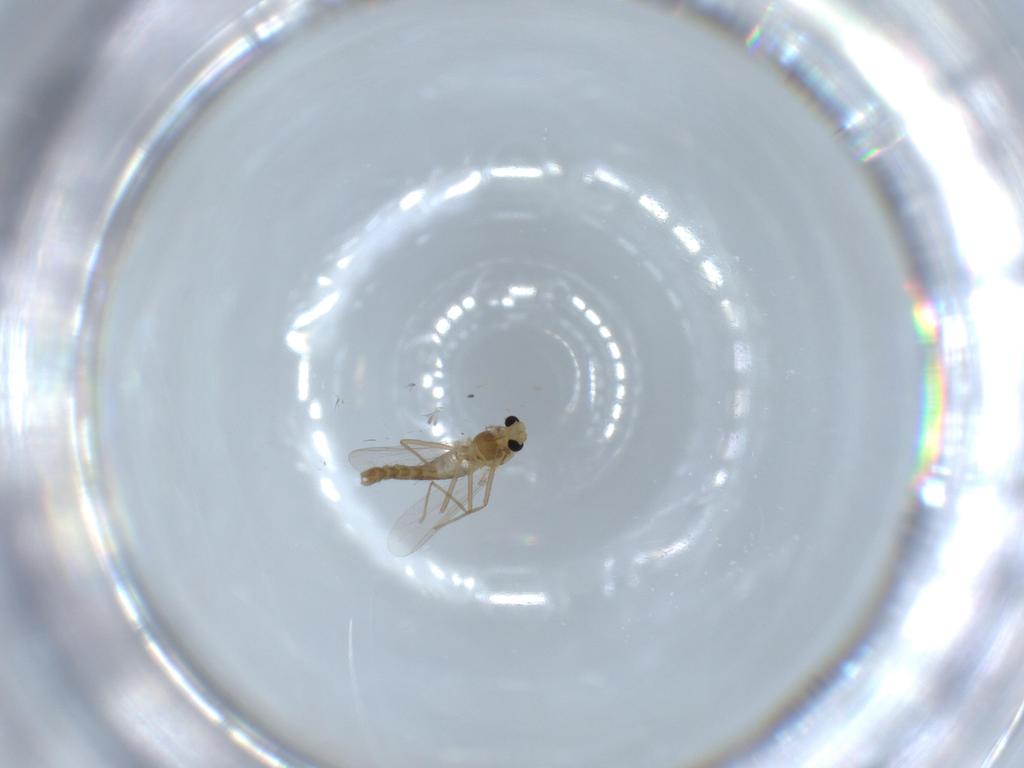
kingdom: Animalia
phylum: Arthropoda
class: Insecta
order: Diptera
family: Chironomidae
